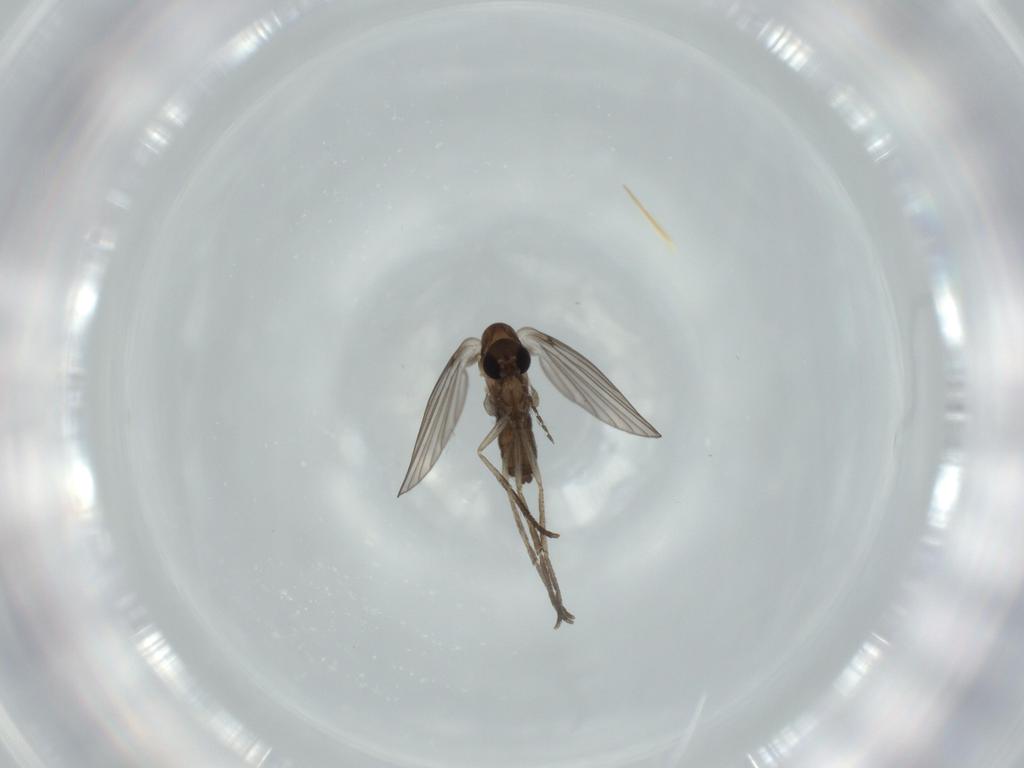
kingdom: Animalia
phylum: Arthropoda
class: Insecta
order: Diptera
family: Psychodidae
